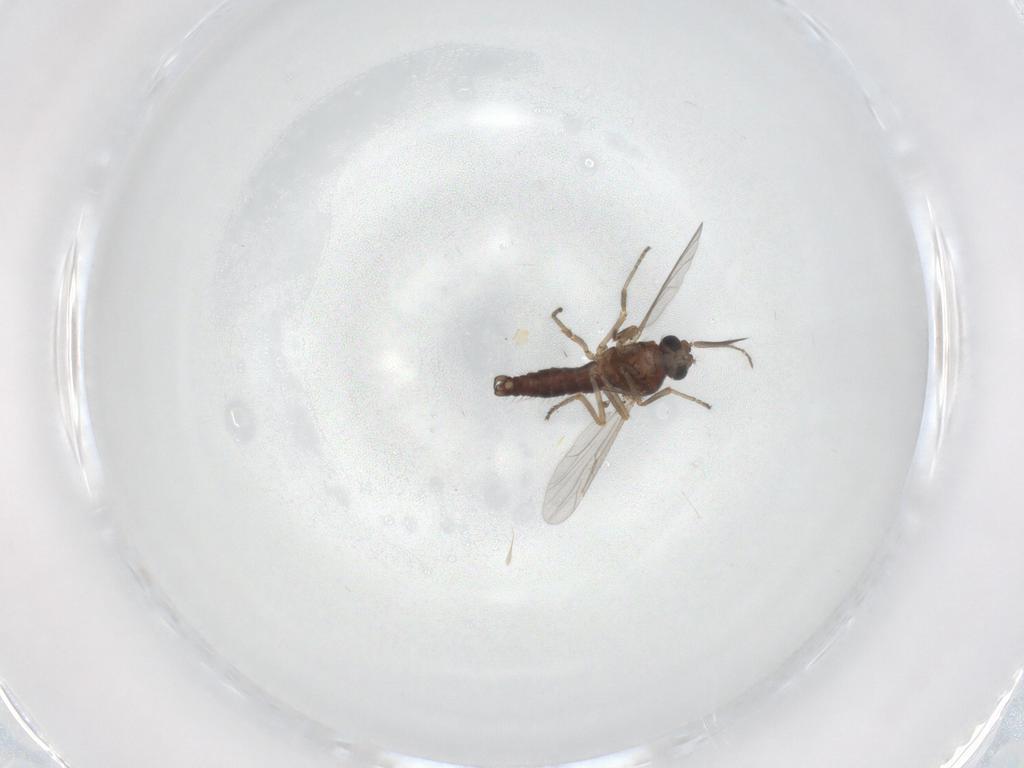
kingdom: Animalia
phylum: Arthropoda
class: Insecta
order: Diptera
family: Ceratopogonidae
